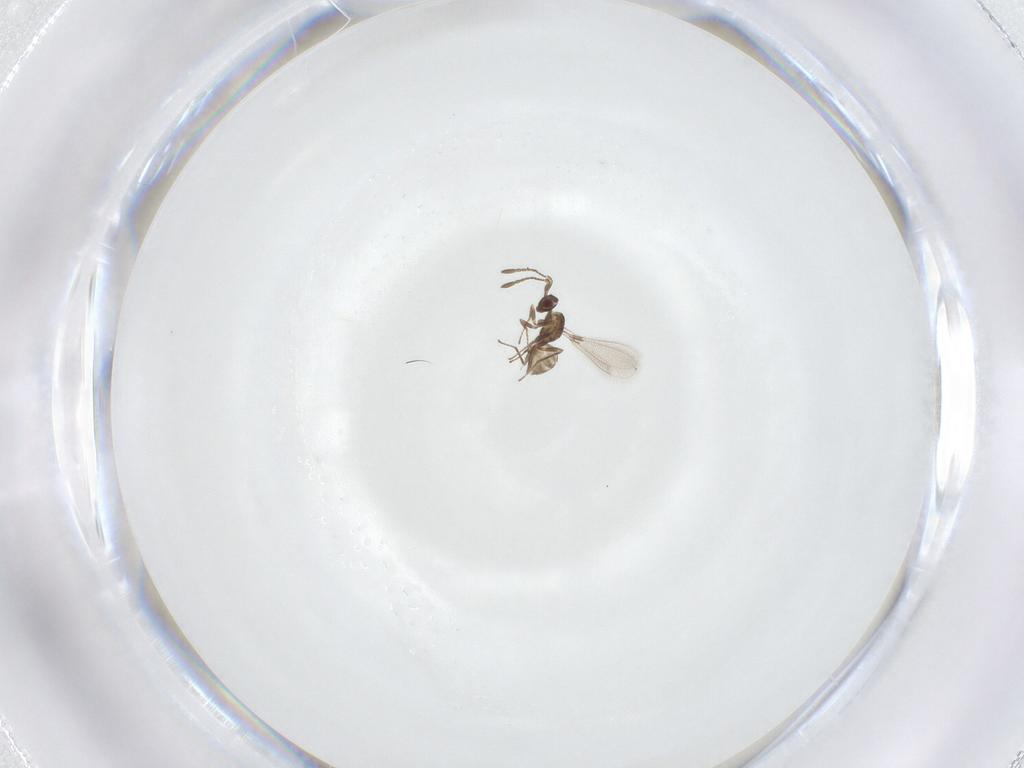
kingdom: Animalia
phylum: Arthropoda
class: Insecta
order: Hymenoptera
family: Mymaridae
